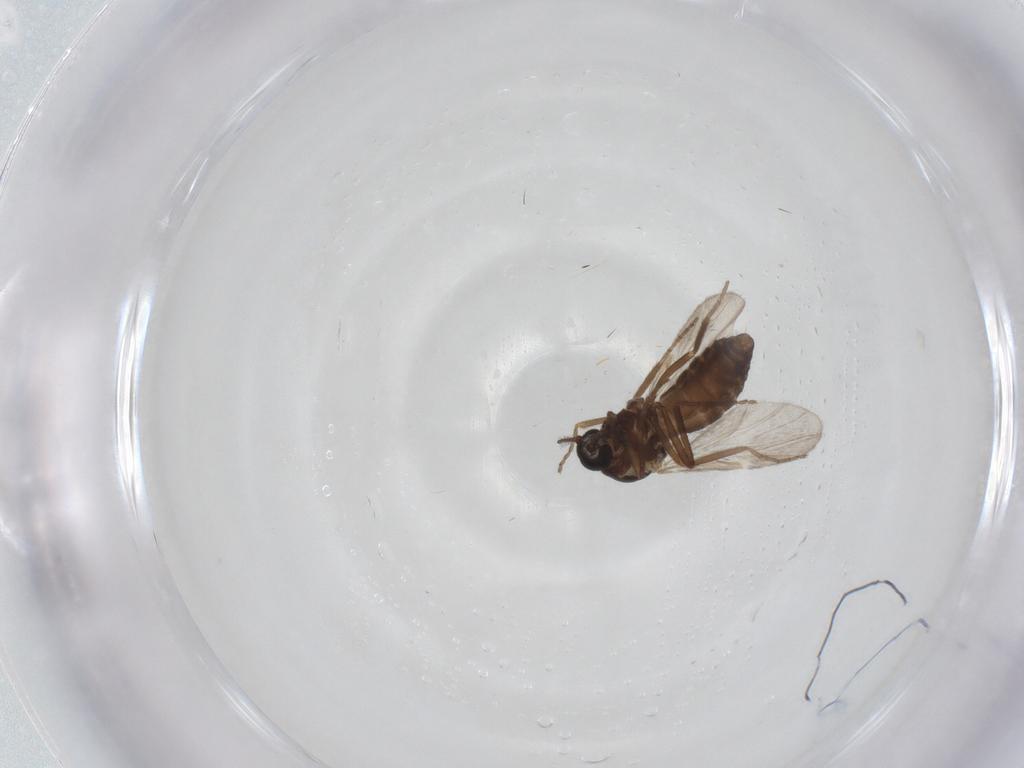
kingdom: Animalia
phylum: Arthropoda
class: Insecta
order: Diptera
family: Ceratopogonidae
